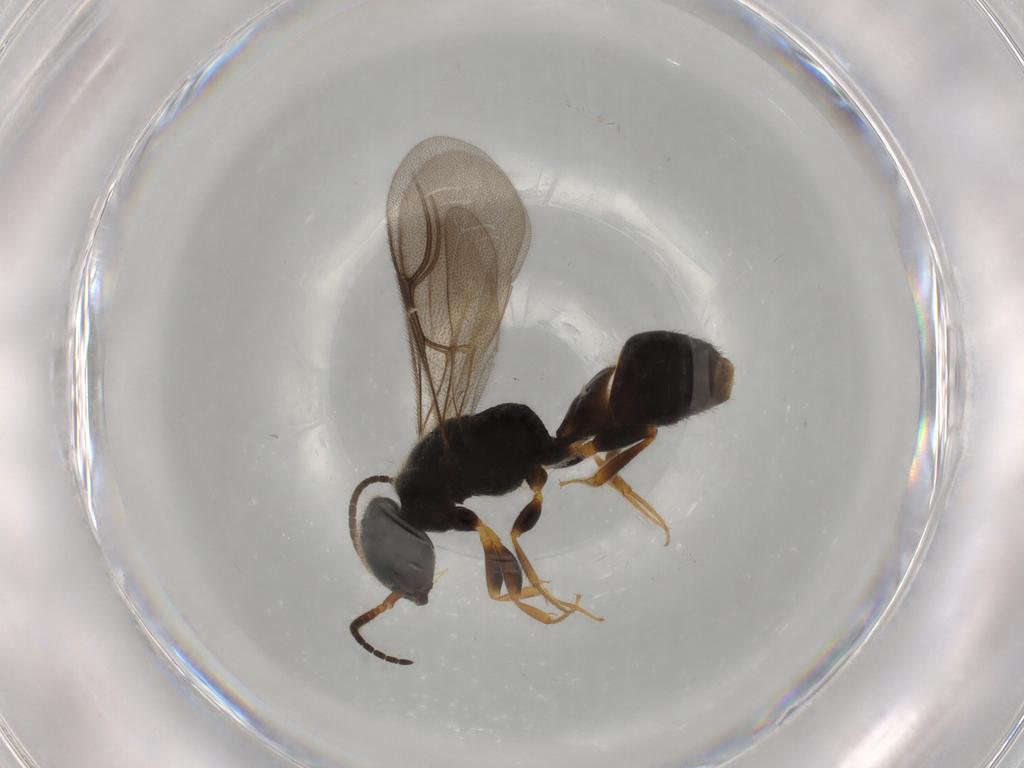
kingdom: Animalia
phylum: Arthropoda
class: Insecta
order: Hymenoptera
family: Bethylidae
